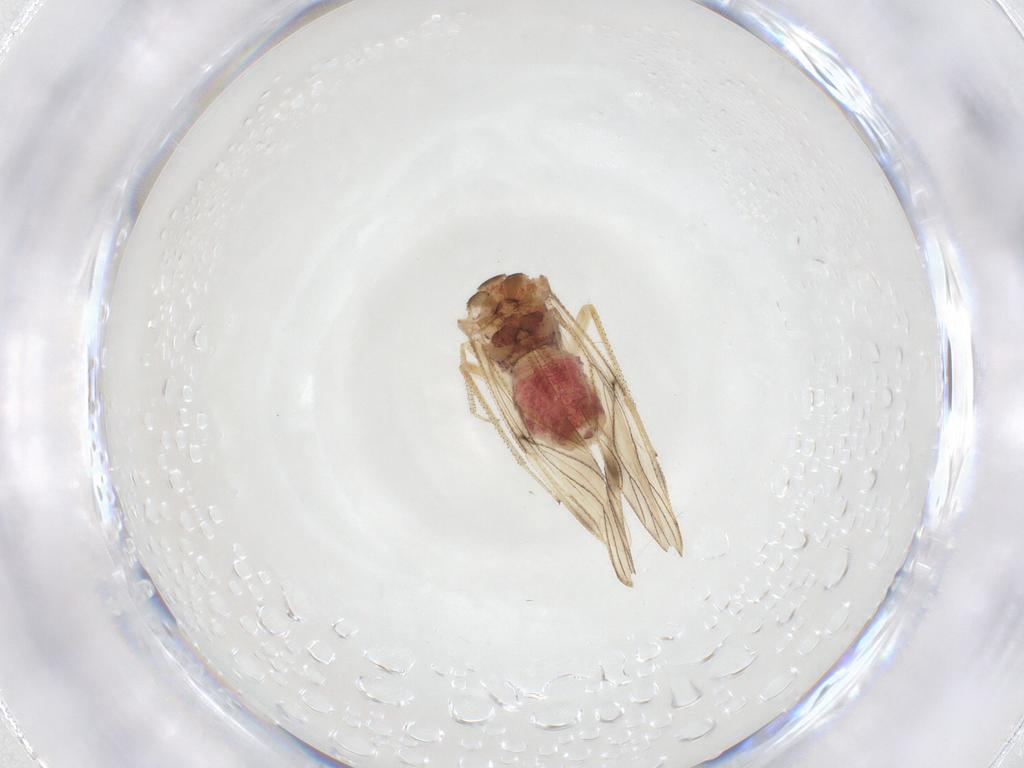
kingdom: Animalia
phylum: Arthropoda
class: Insecta
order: Psocodea
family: Pseudocaeciliidae
